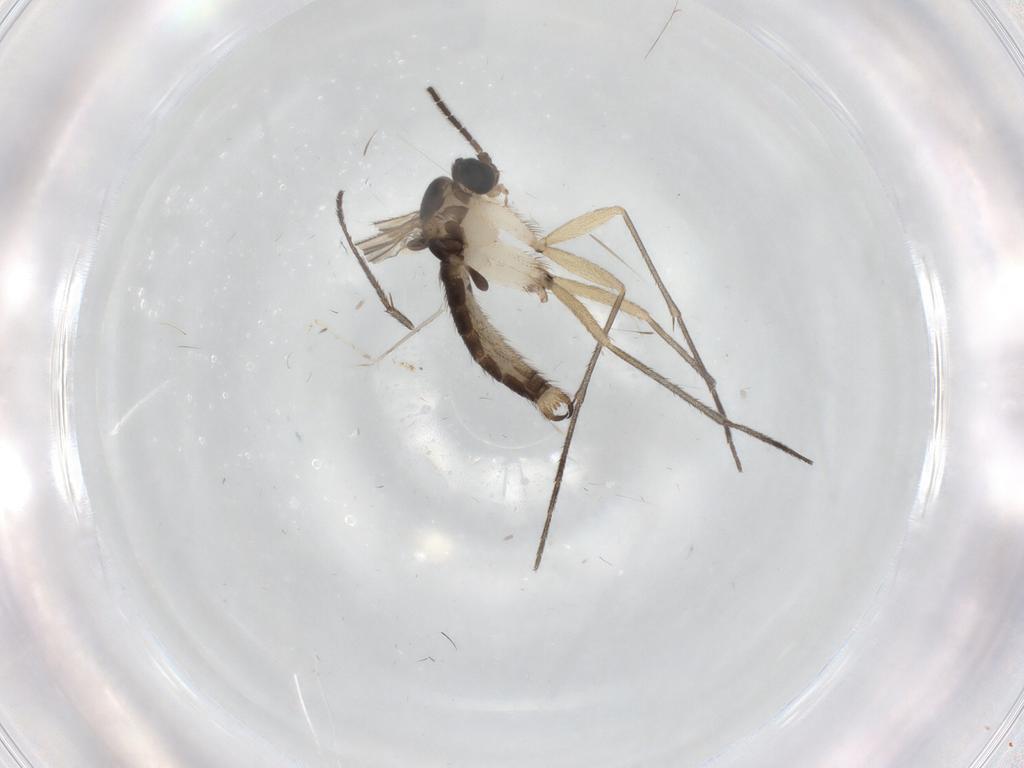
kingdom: Animalia
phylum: Arthropoda
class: Insecta
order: Diptera
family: Sciaridae
